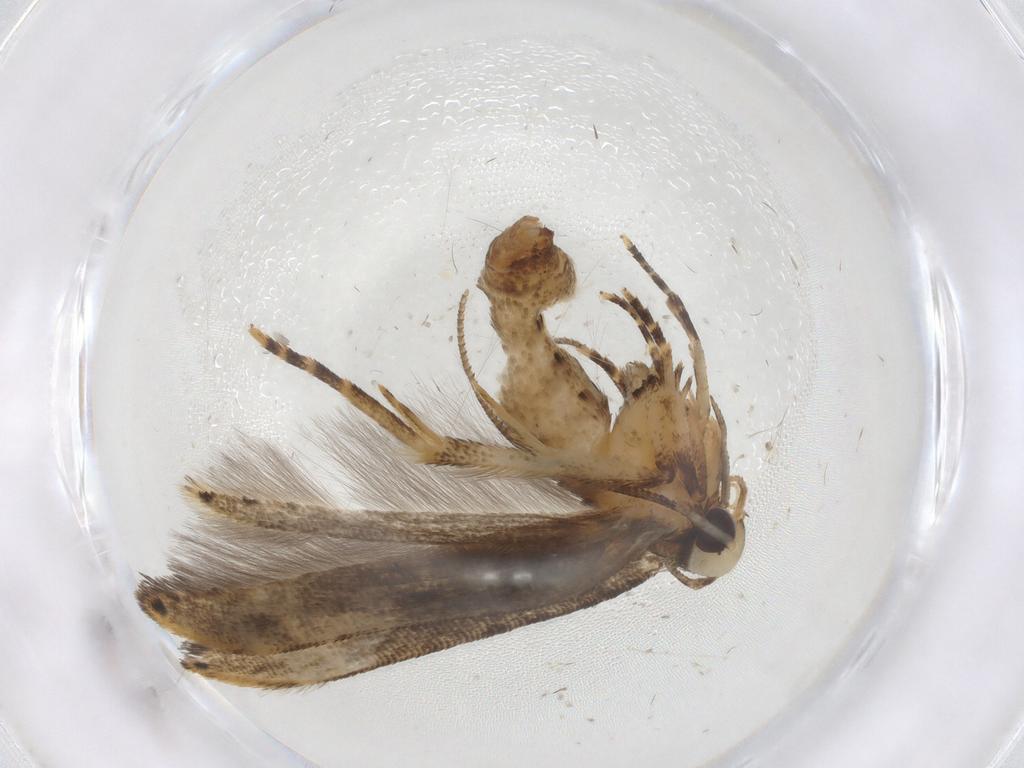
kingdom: Animalia
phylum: Arthropoda
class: Insecta
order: Lepidoptera
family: Cosmopterigidae
